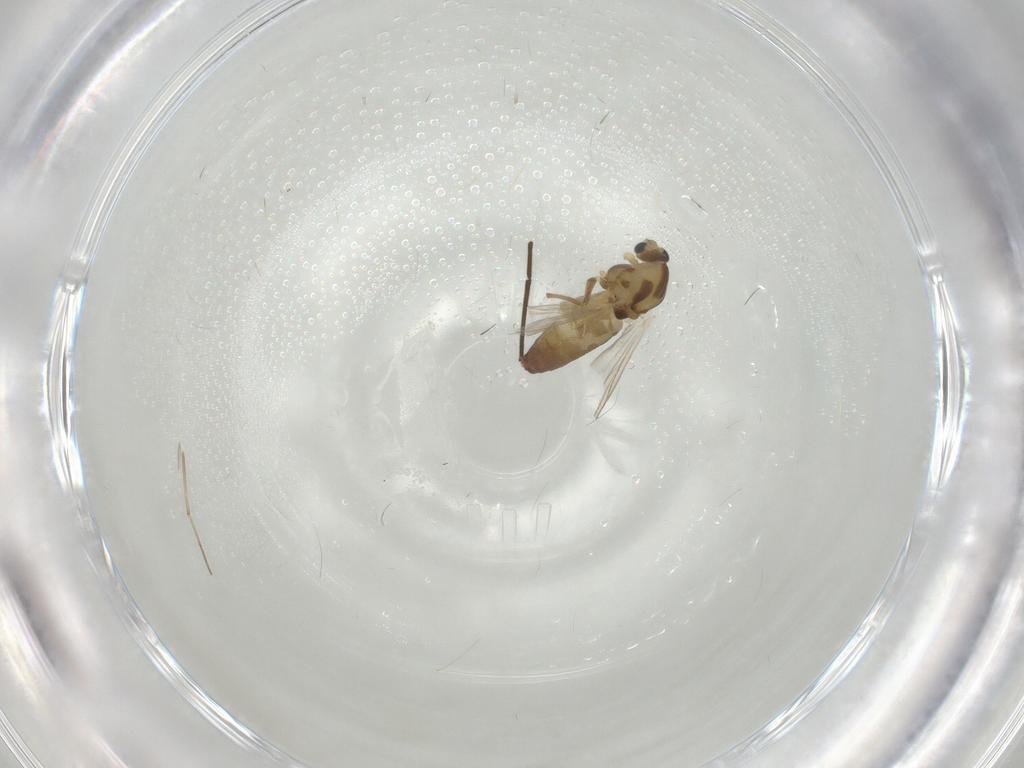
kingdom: Animalia
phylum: Arthropoda
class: Insecta
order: Diptera
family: Chironomidae
